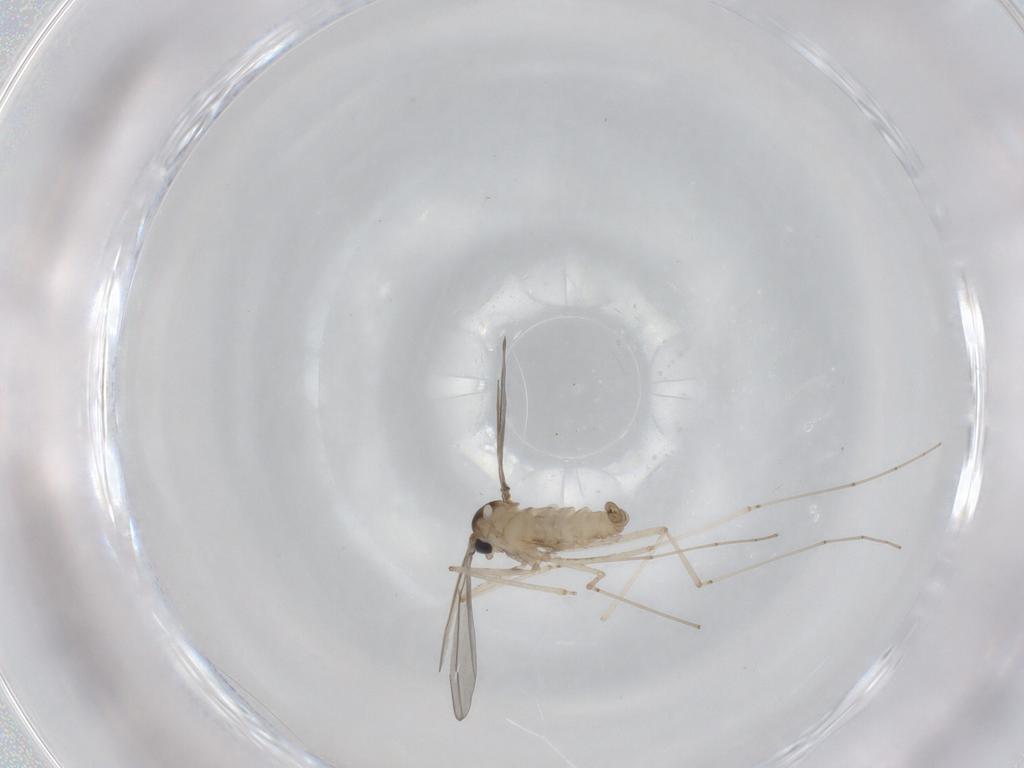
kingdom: Animalia
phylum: Arthropoda
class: Insecta
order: Diptera
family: Cecidomyiidae
